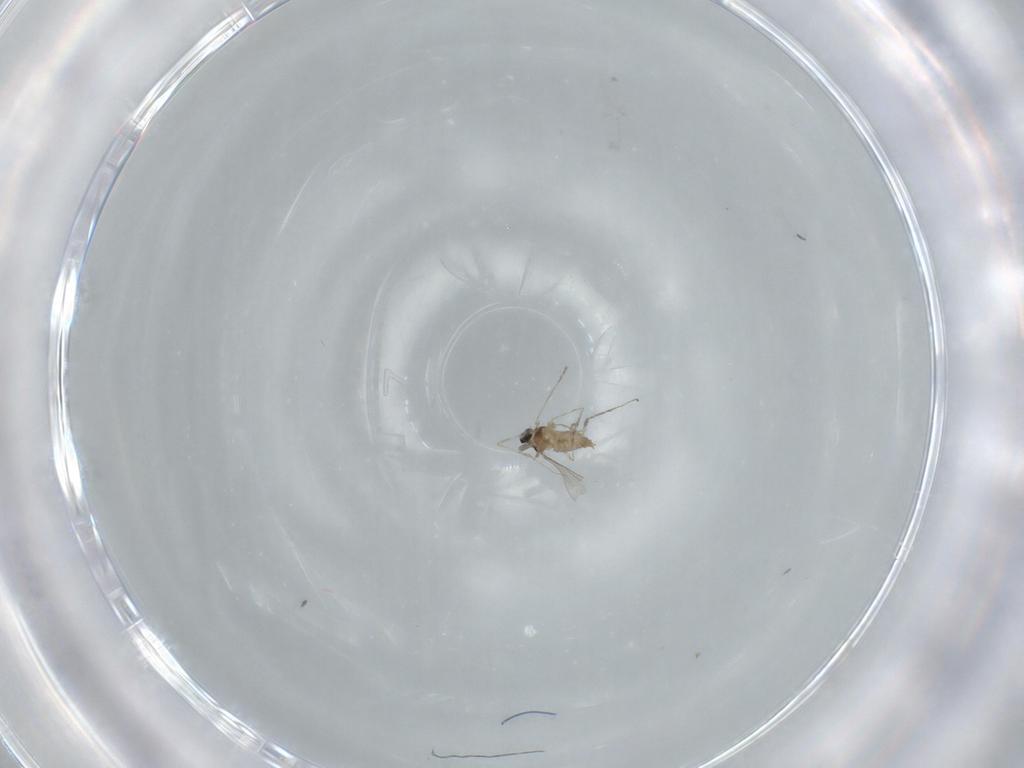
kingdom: Animalia
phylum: Arthropoda
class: Insecta
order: Diptera
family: Cecidomyiidae
